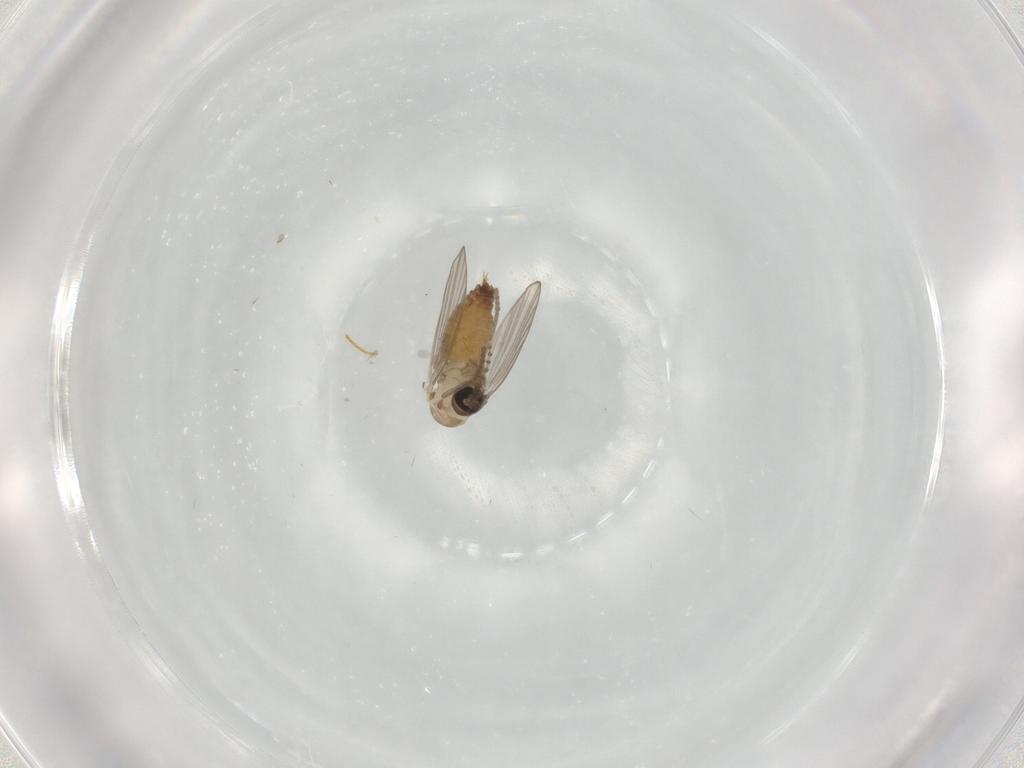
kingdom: Animalia
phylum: Arthropoda
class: Insecta
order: Diptera
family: Psychodidae
